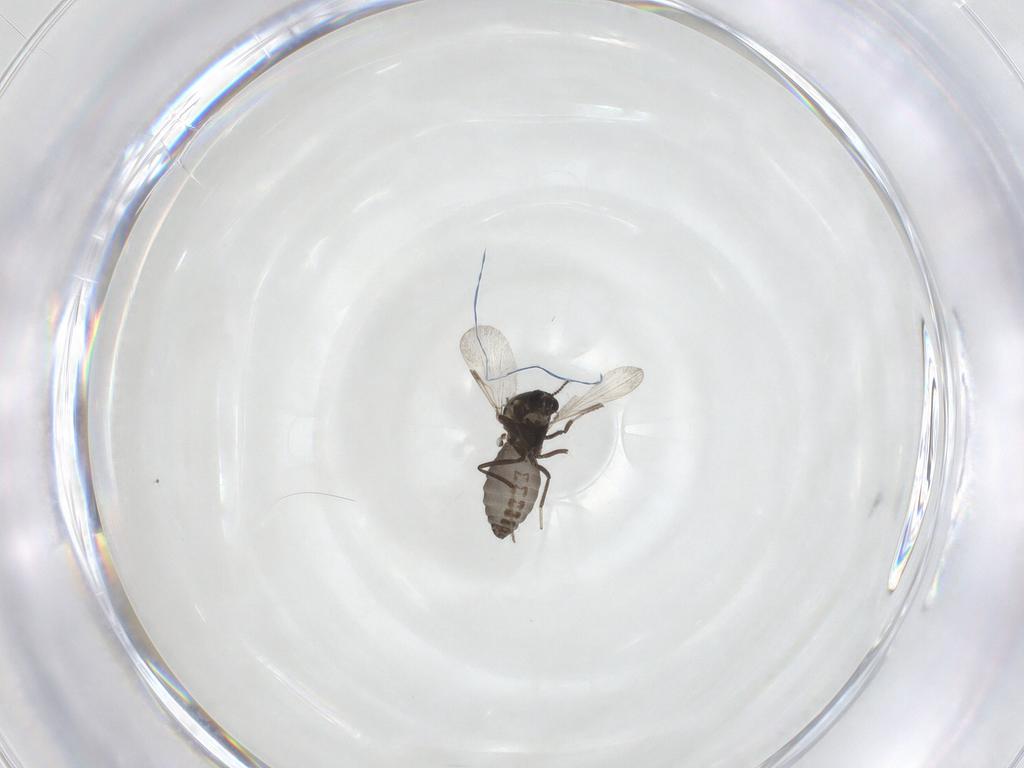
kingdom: Animalia
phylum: Arthropoda
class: Insecta
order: Diptera
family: Ceratopogonidae
